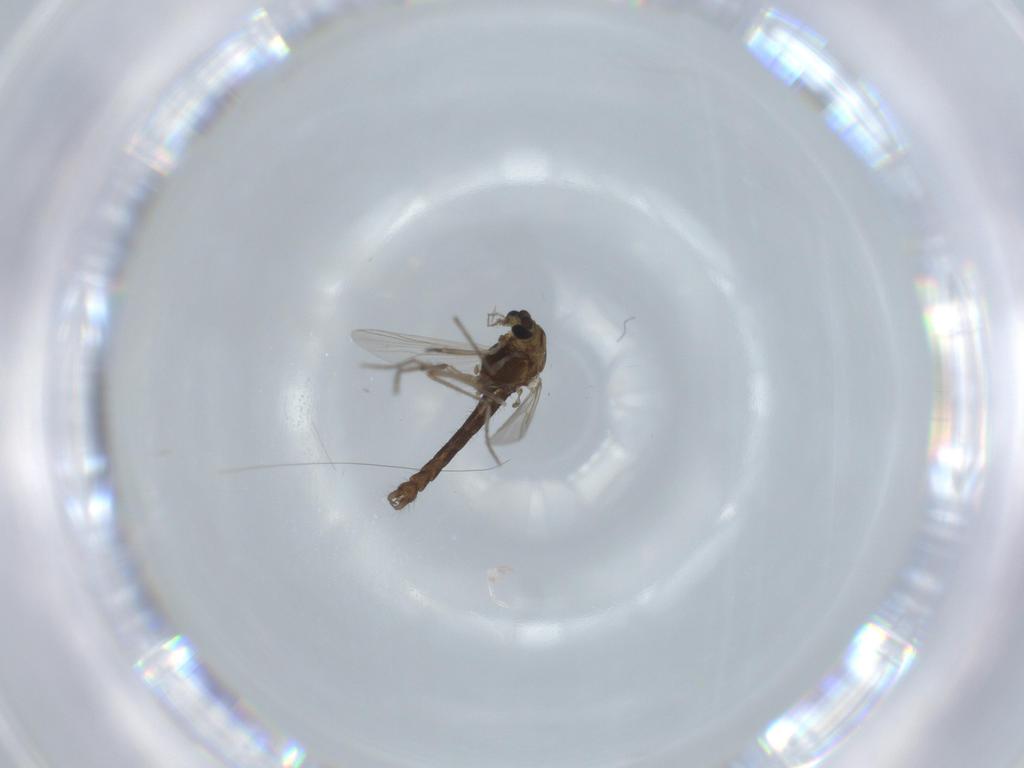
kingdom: Animalia
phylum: Arthropoda
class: Insecta
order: Diptera
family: Chironomidae
